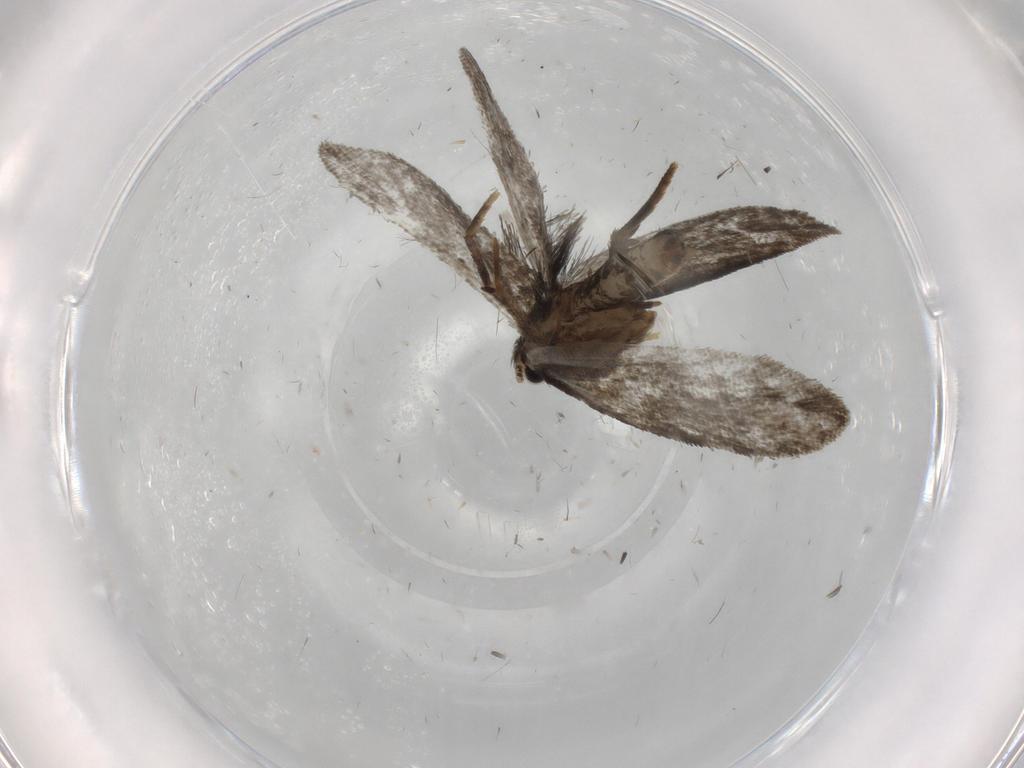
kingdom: Animalia
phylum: Arthropoda
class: Insecta
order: Lepidoptera
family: Psychidae
